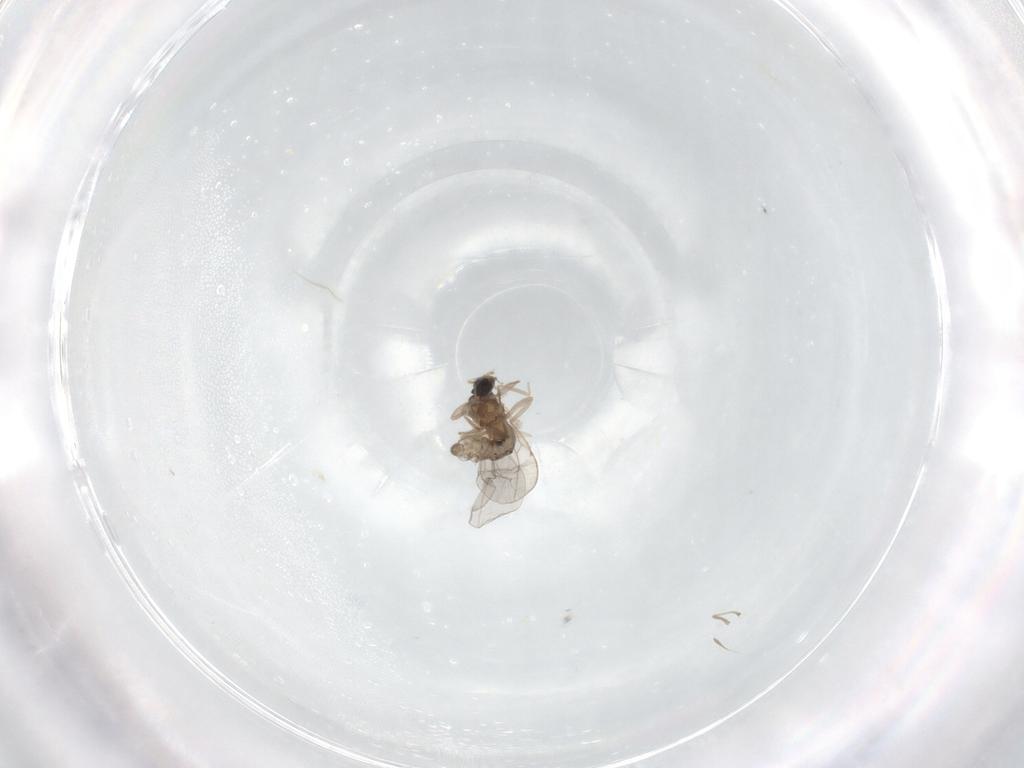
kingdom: Animalia
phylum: Arthropoda
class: Insecta
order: Diptera
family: Cecidomyiidae
